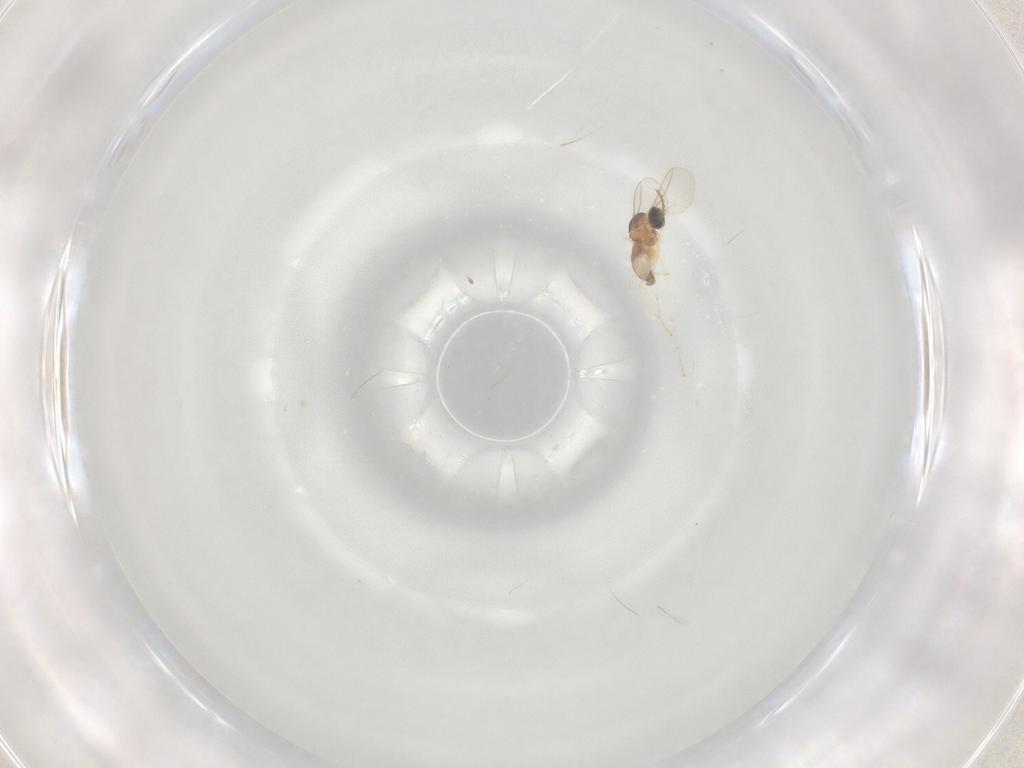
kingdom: Animalia
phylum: Arthropoda
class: Insecta
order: Diptera
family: Cecidomyiidae
